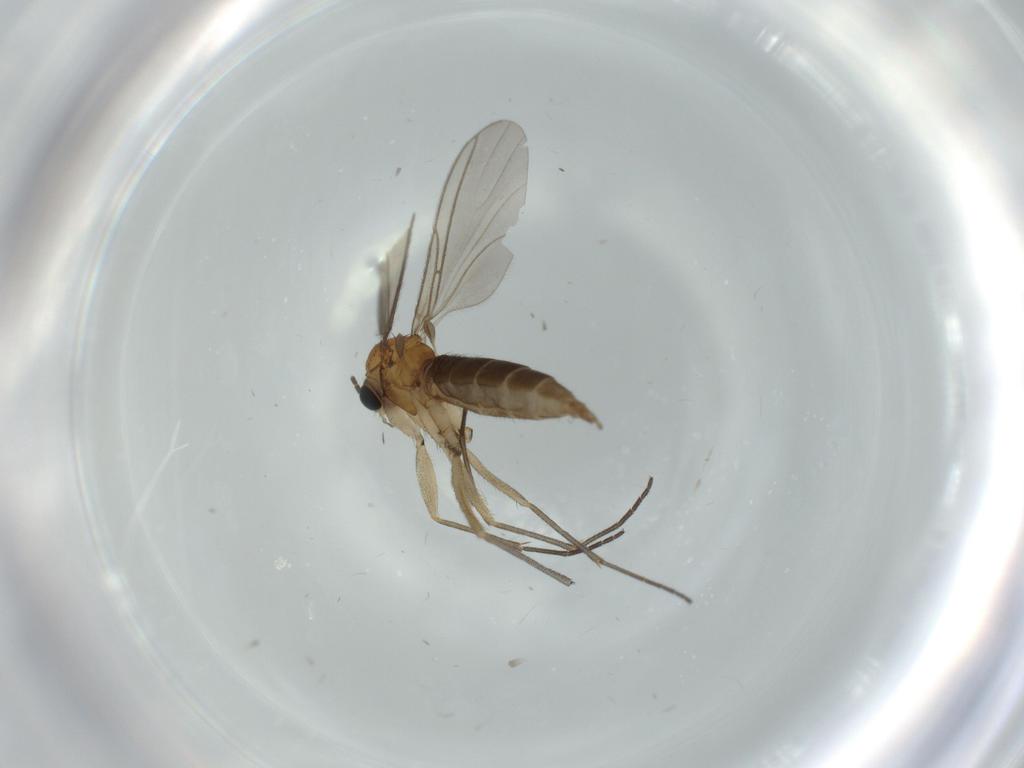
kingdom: Animalia
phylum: Arthropoda
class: Insecta
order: Diptera
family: Sciaridae
